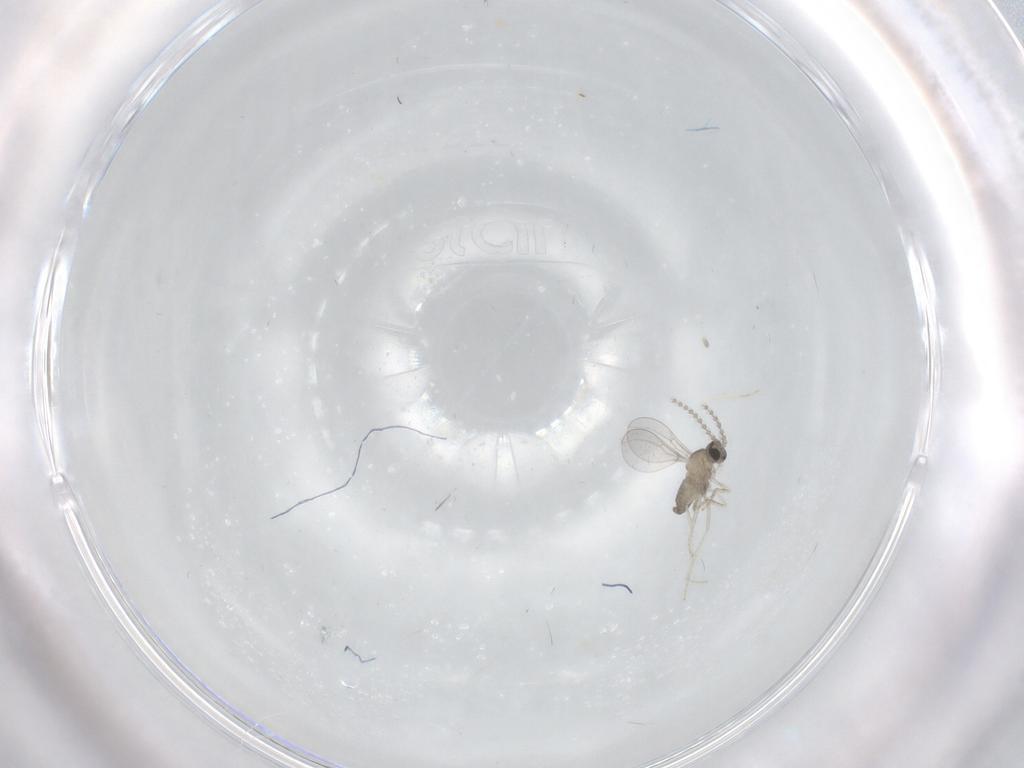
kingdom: Animalia
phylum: Arthropoda
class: Insecta
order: Diptera
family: Cecidomyiidae
